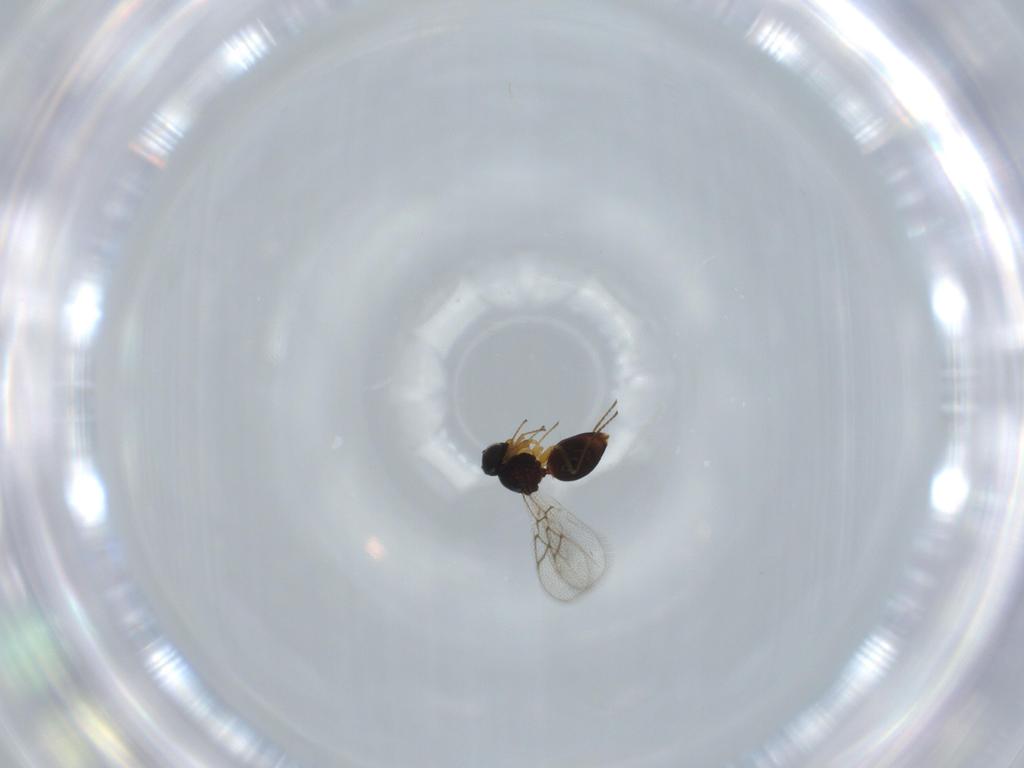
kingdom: Animalia
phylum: Arthropoda
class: Insecta
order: Hymenoptera
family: Figitidae
